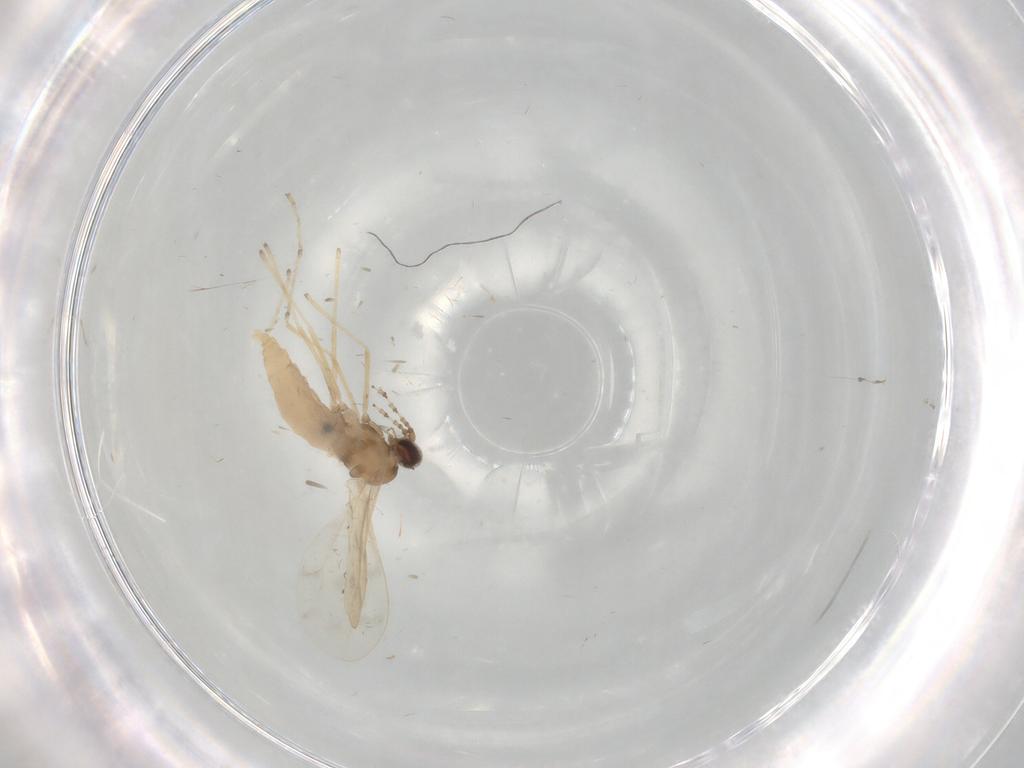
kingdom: Animalia
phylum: Arthropoda
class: Insecta
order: Diptera
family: Cecidomyiidae
